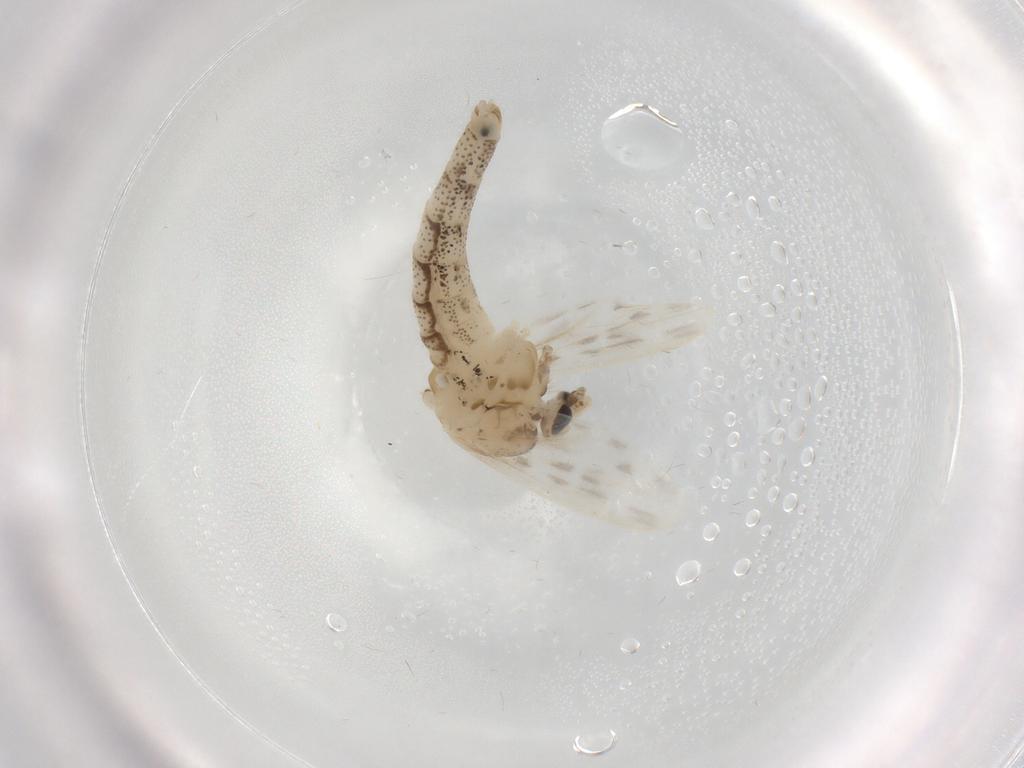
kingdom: Animalia
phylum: Arthropoda
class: Insecta
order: Diptera
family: Chaoboridae
